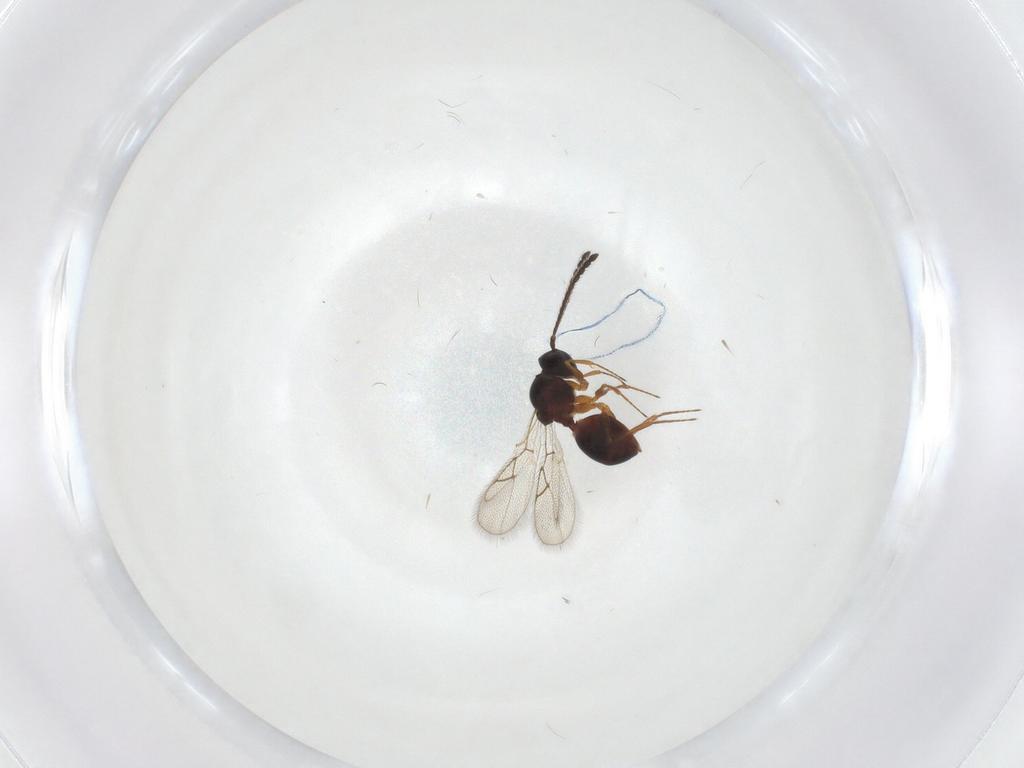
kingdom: Animalia
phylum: Arthropoda
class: Insecta
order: Hymenoptera
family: Figitidae
